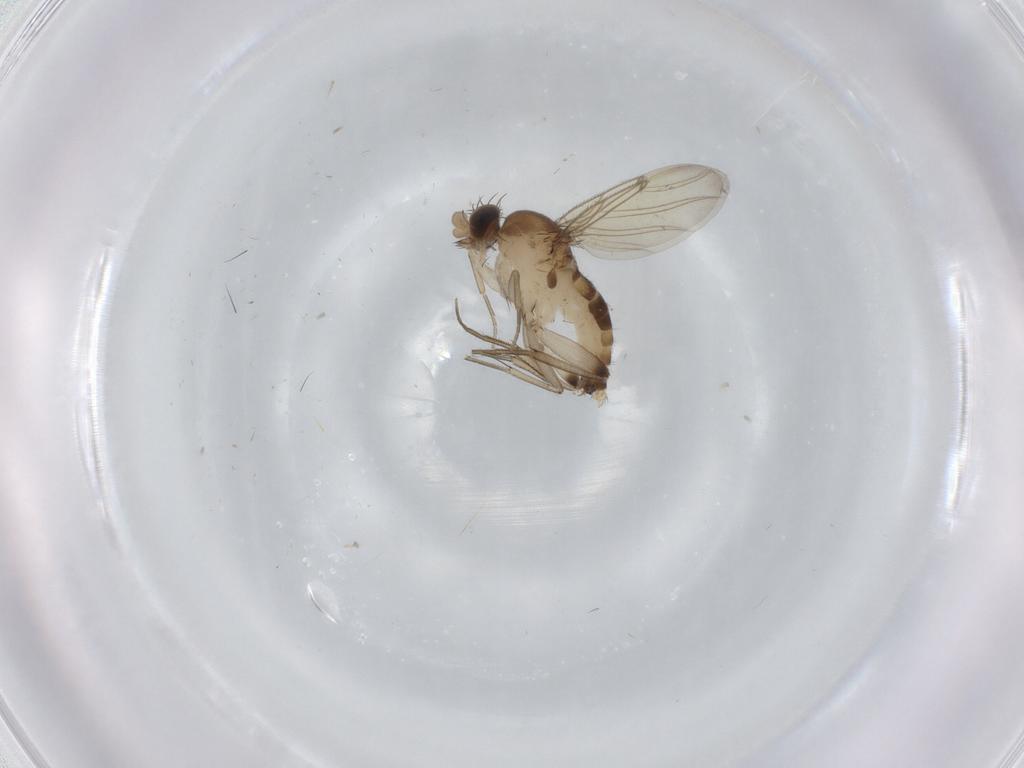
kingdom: Animalia
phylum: Arthropoda
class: Insecta
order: Diptera
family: Phoridae
